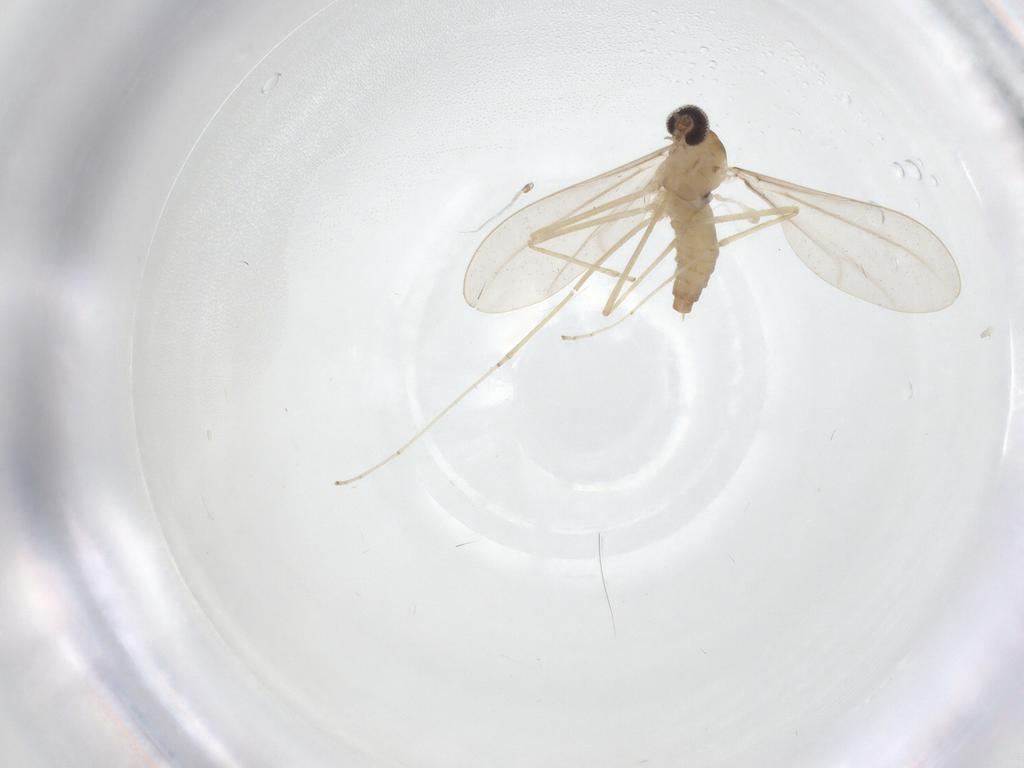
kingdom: Animalia
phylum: Arthropoda
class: Insecta
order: Diptera
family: Cecidomyiidae
